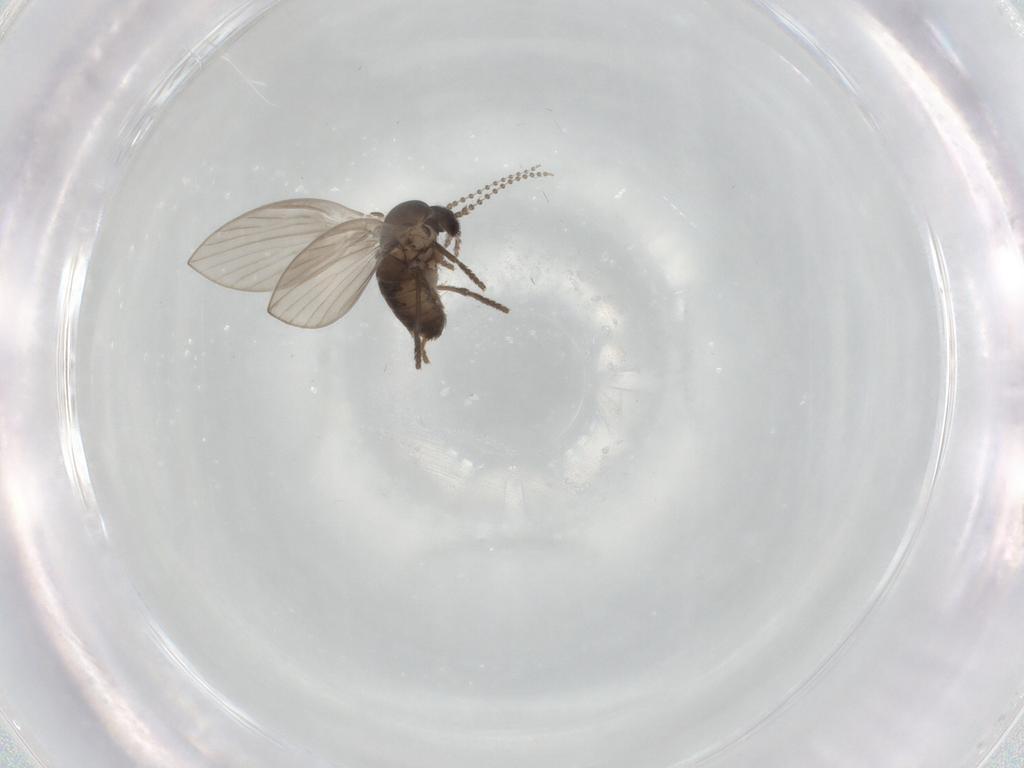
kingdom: Animalia
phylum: Arthropoda
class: Insecta
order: Diptera
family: Psychodidae
